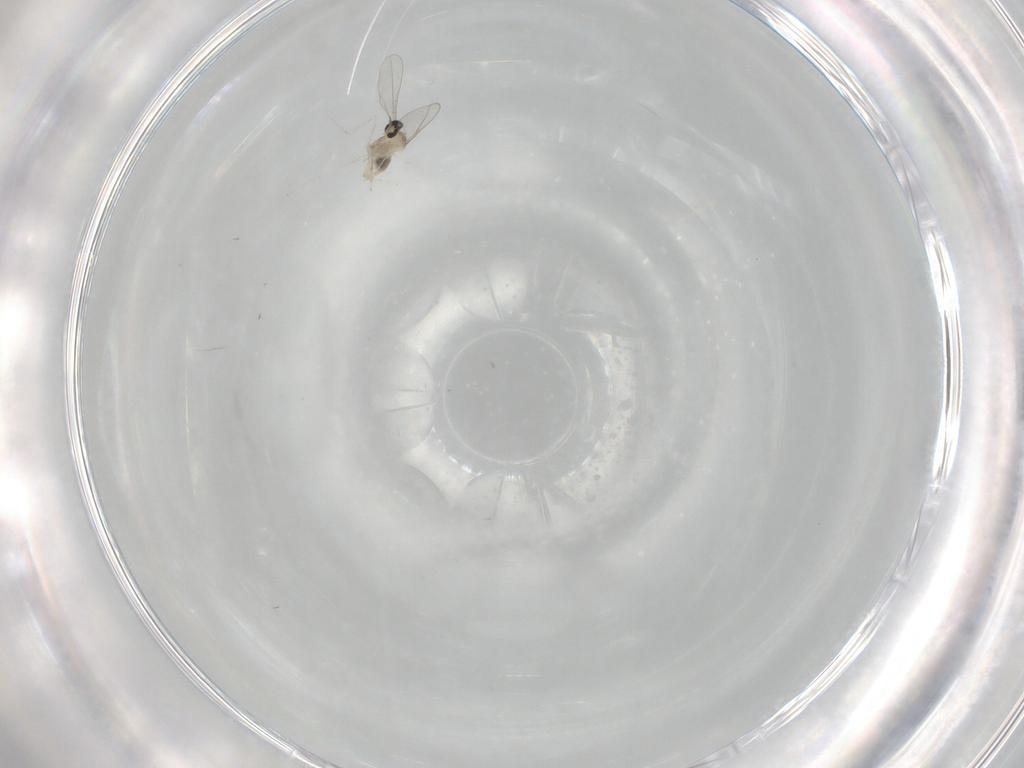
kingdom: Animalia
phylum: Arthropoda
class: Insecta
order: Diptera
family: Cecidomyiidae
